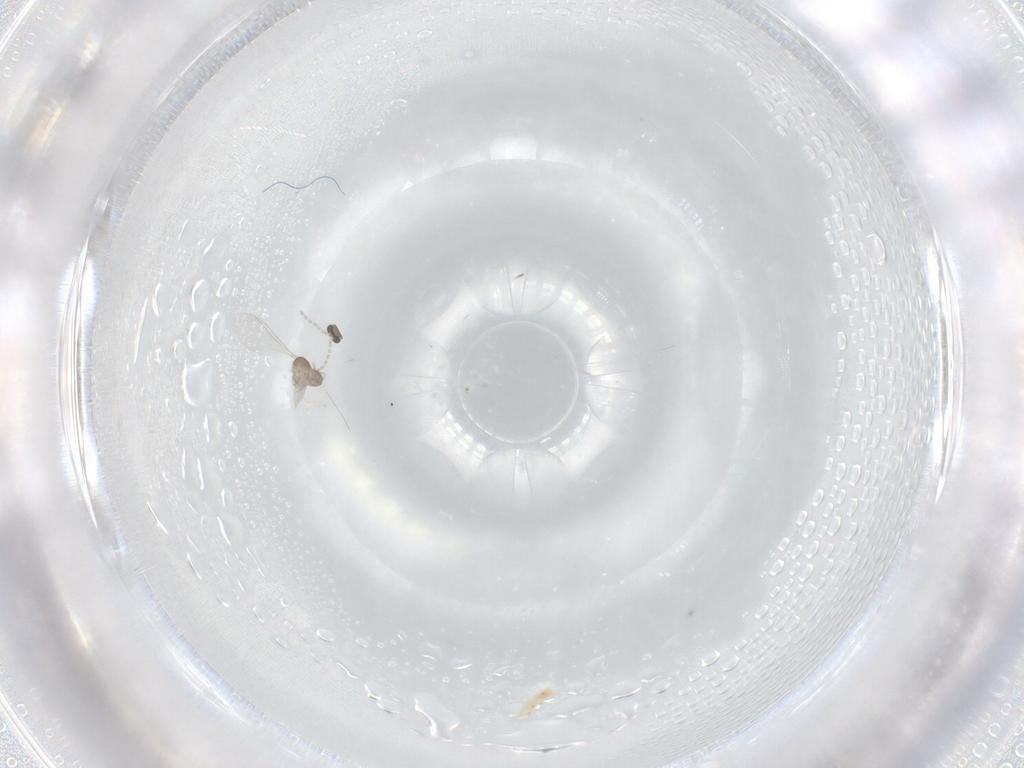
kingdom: Animalia
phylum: Arthropoda
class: Insecta
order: Diptera
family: Cecidomyiidae
